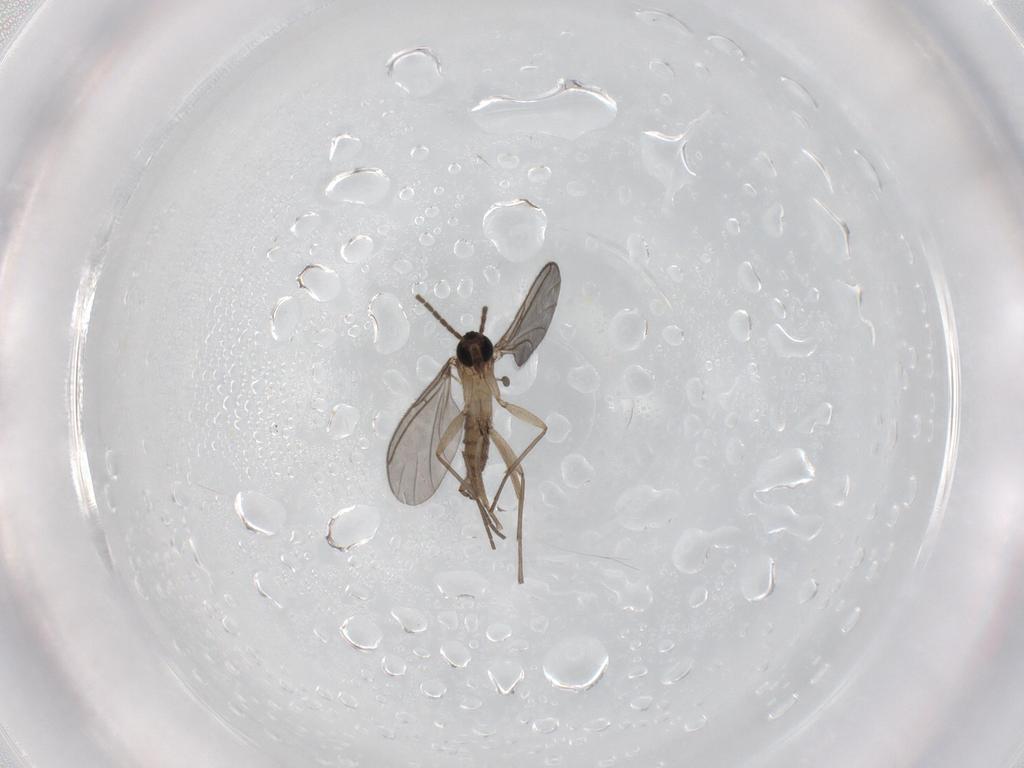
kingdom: Animalia
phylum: Arthropoda
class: Insecta
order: Diptera
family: Sciaridae
